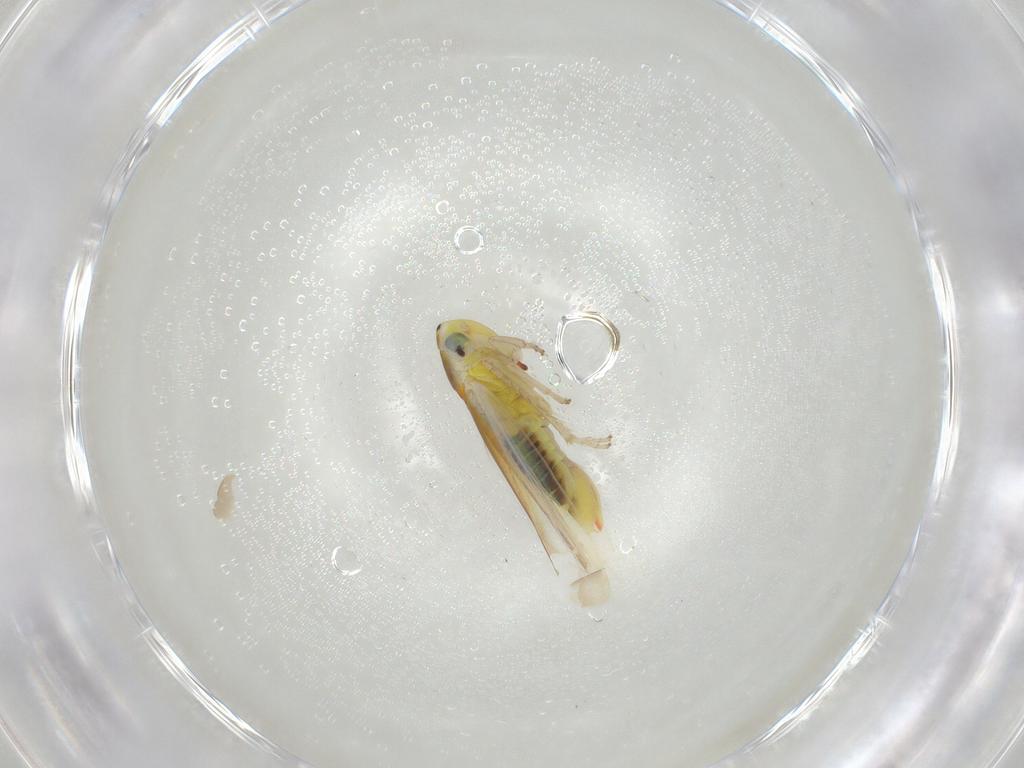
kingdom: Animalia
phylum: Arthropoda
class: Insecta
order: Hemiptera
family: Cicadellidae
